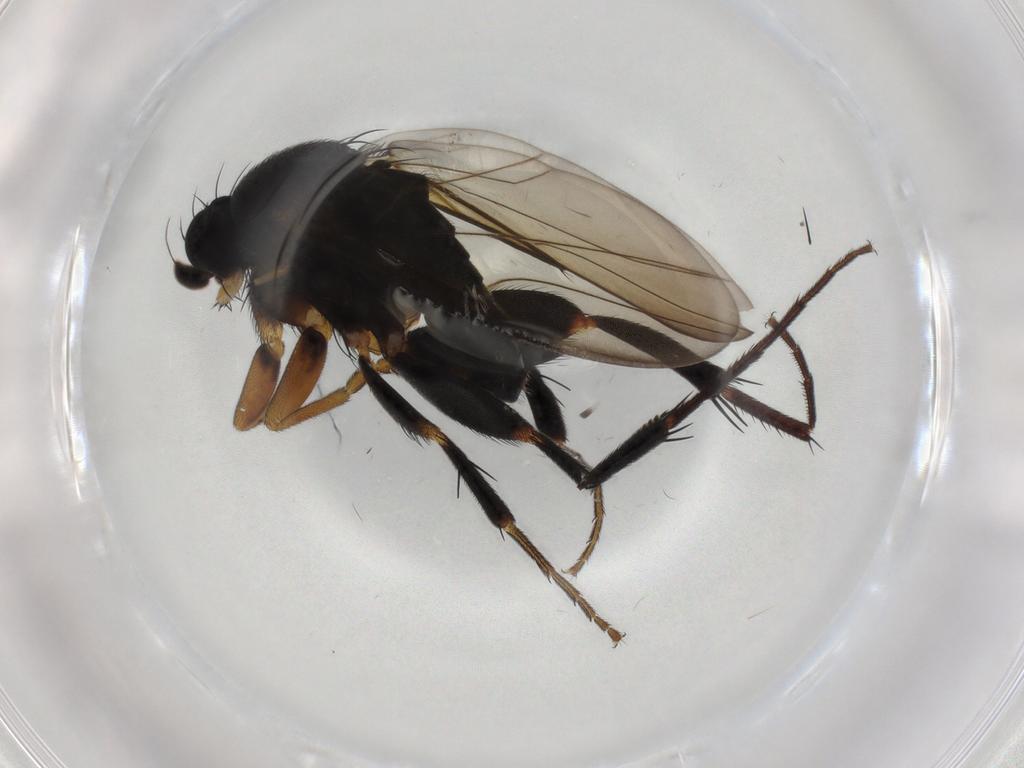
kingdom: Animalia
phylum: Arthropoda
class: Insecta
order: Diptera
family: Phoridae
